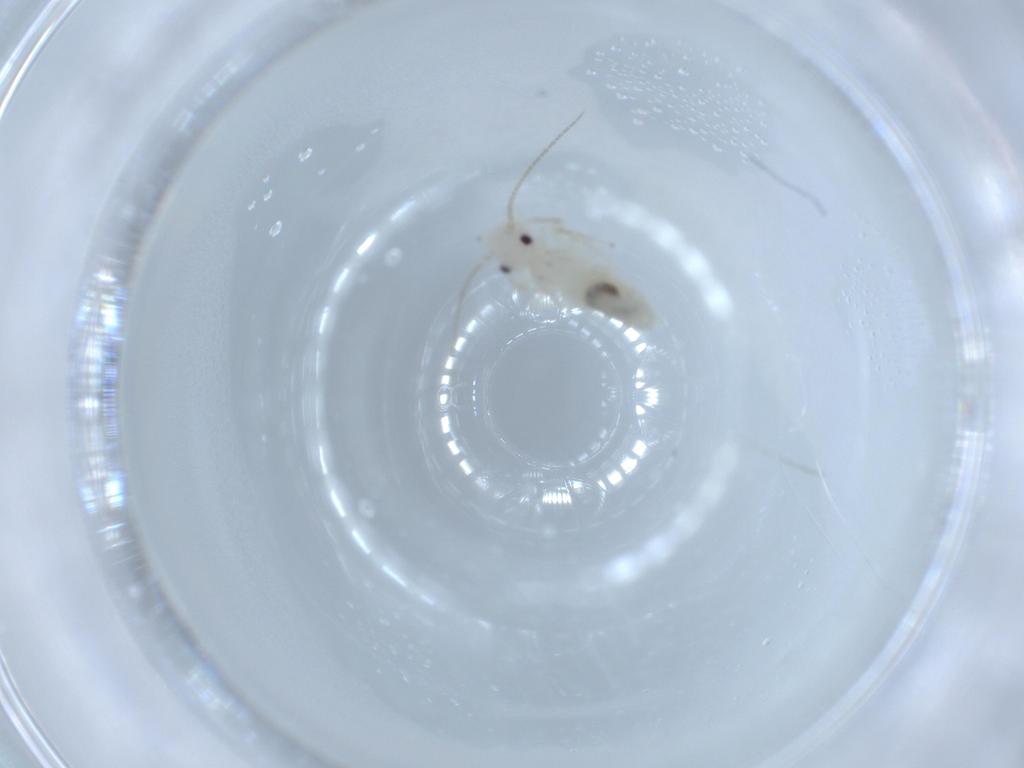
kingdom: Animalia
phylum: Arthropoda
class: Insecta
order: Psocodea
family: Caeciliusidae
